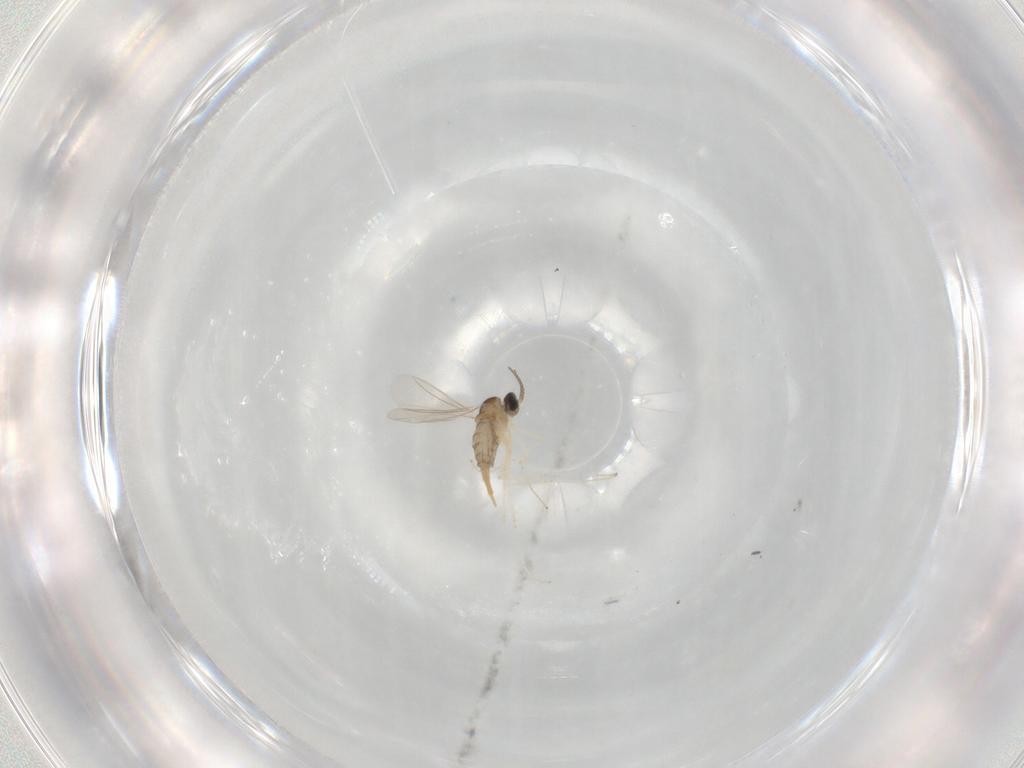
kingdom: Animalia
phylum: Arthropoda
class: Insecta
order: Diptera
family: Cecidomyiidae
